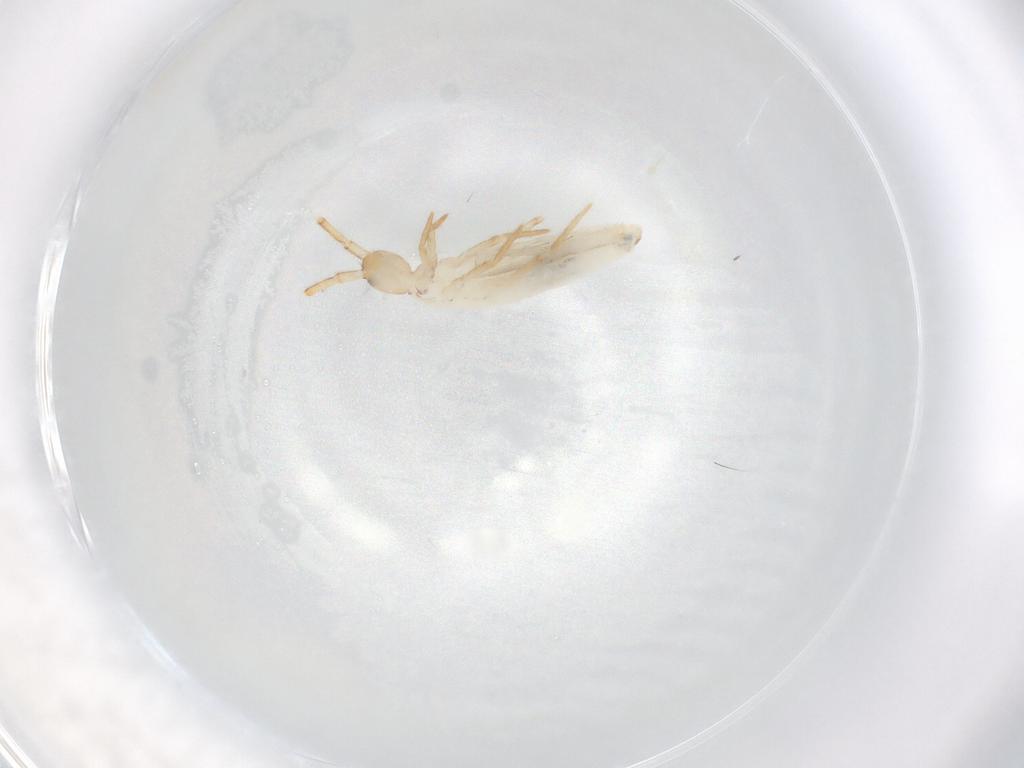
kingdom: Animalia
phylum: Arthropoda
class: Collembola
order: Entomobryomorpha
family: Entomobryidae
